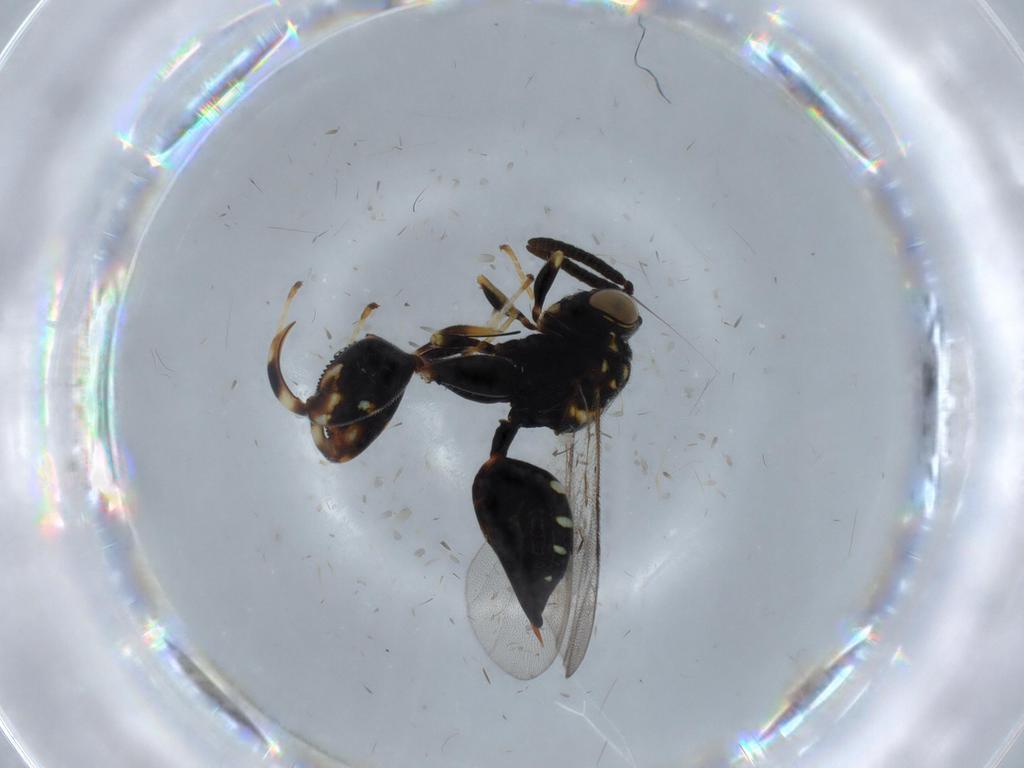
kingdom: Animalia
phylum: Arthropoda
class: Insecta
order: Hymenoptera
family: Chalcididae
